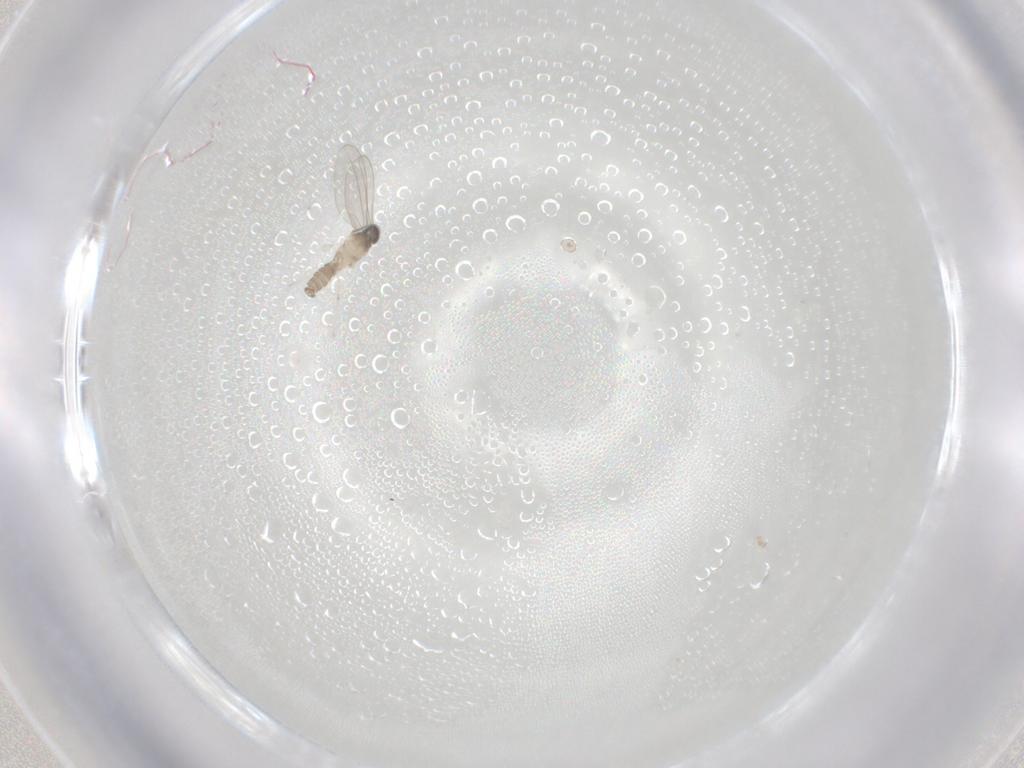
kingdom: Animalia
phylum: Arthropoda
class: Insecta
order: Diptera
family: Cecidomyiidae
